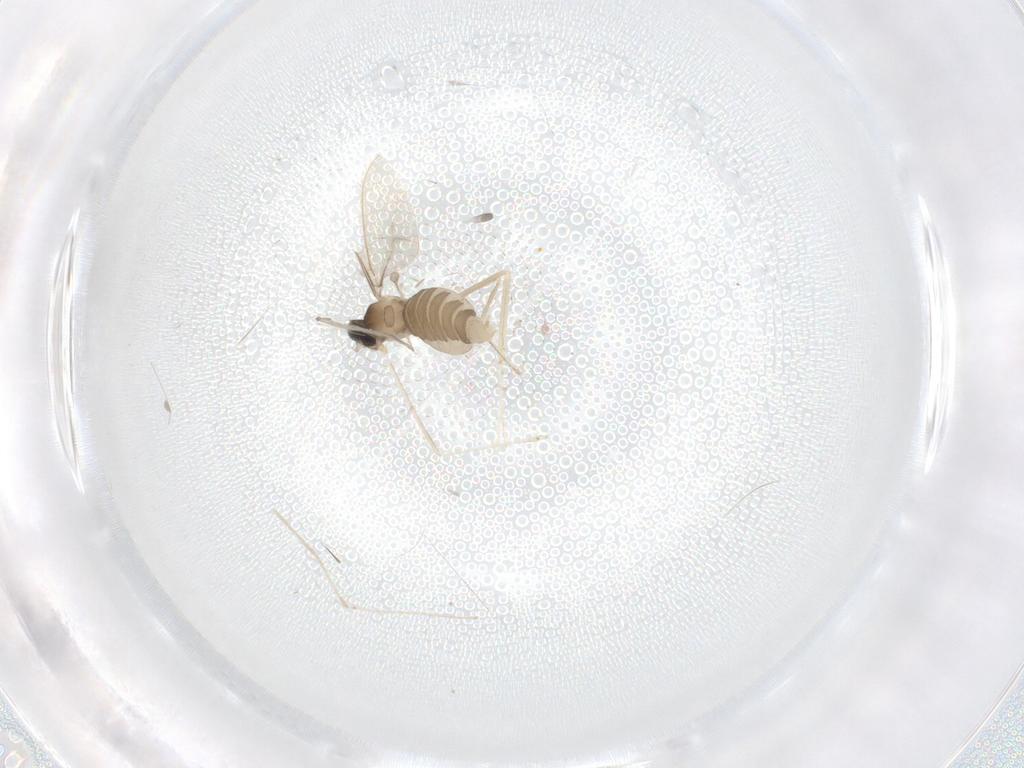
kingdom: Animalia
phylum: Arthropoda
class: Insecta
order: Diptera
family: Cecidomyiidae
